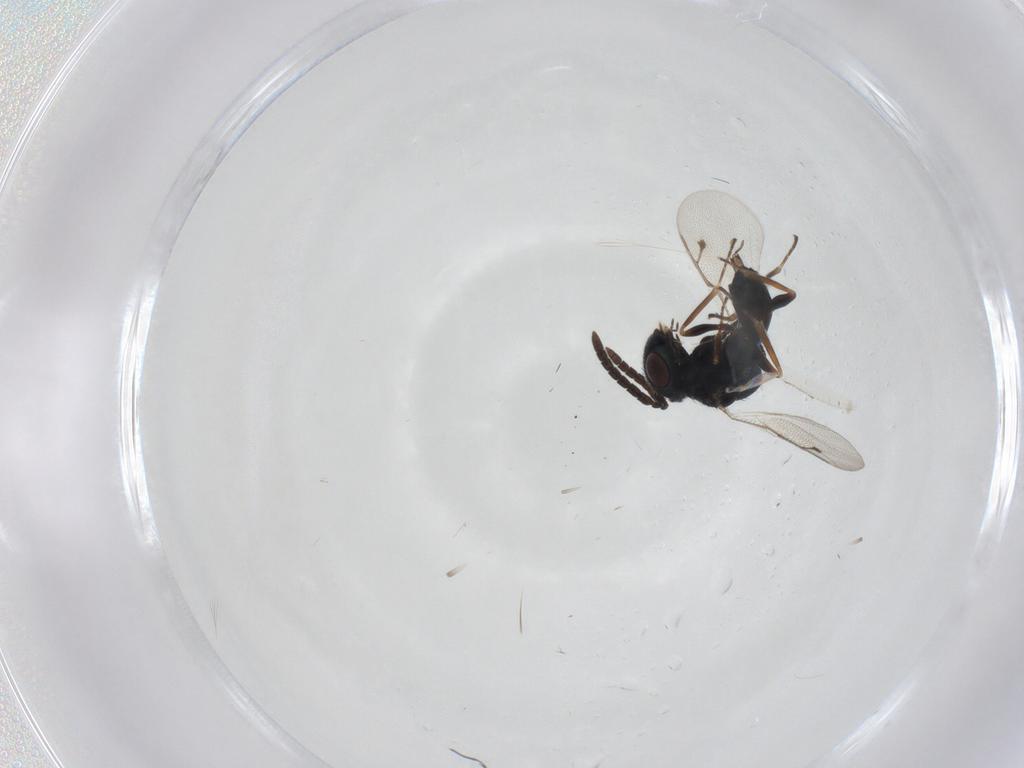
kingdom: Animalia
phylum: Arthropoda
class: Insecta
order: Hymenoptera
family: Pteromalidae
